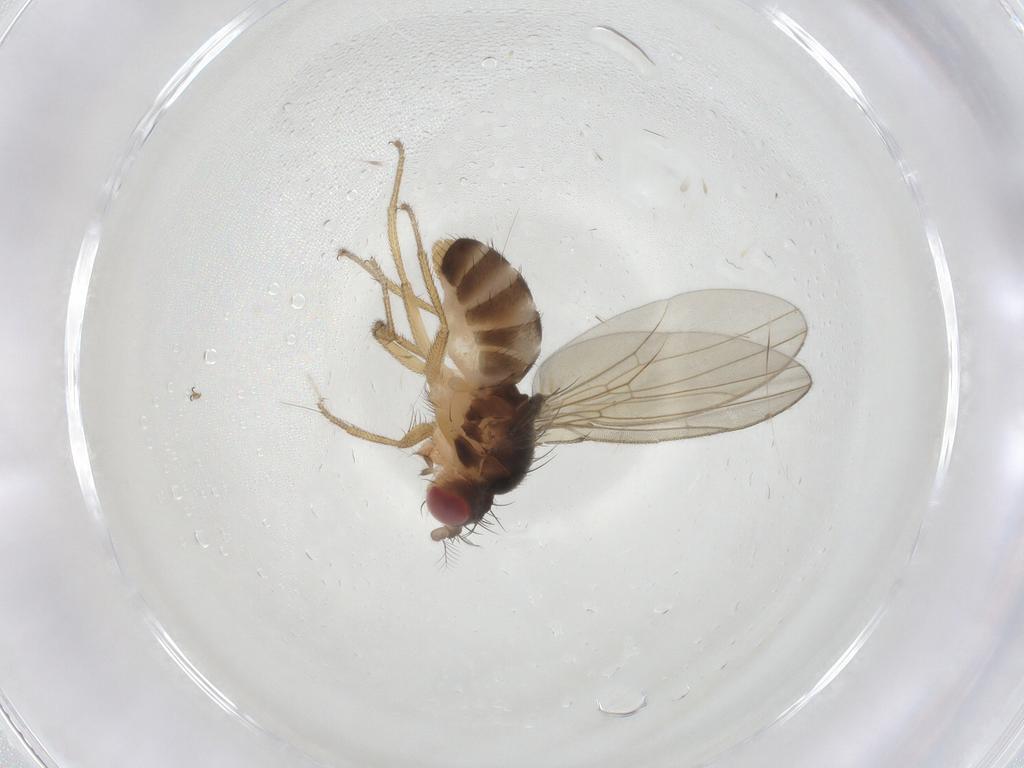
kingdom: Animalia
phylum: Arthropoda
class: Insecta
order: Diptera
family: Drosophilidae
